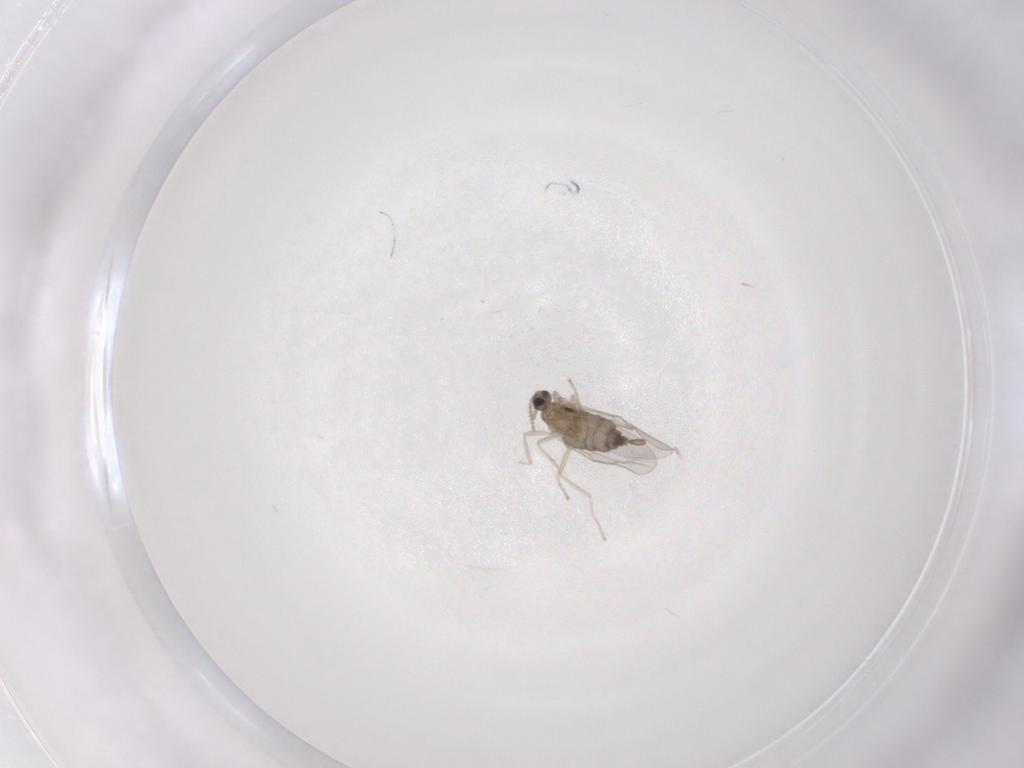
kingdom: Animalia
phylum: Arthropoda
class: Insecta
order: Diptera
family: Cecidomyiidae
